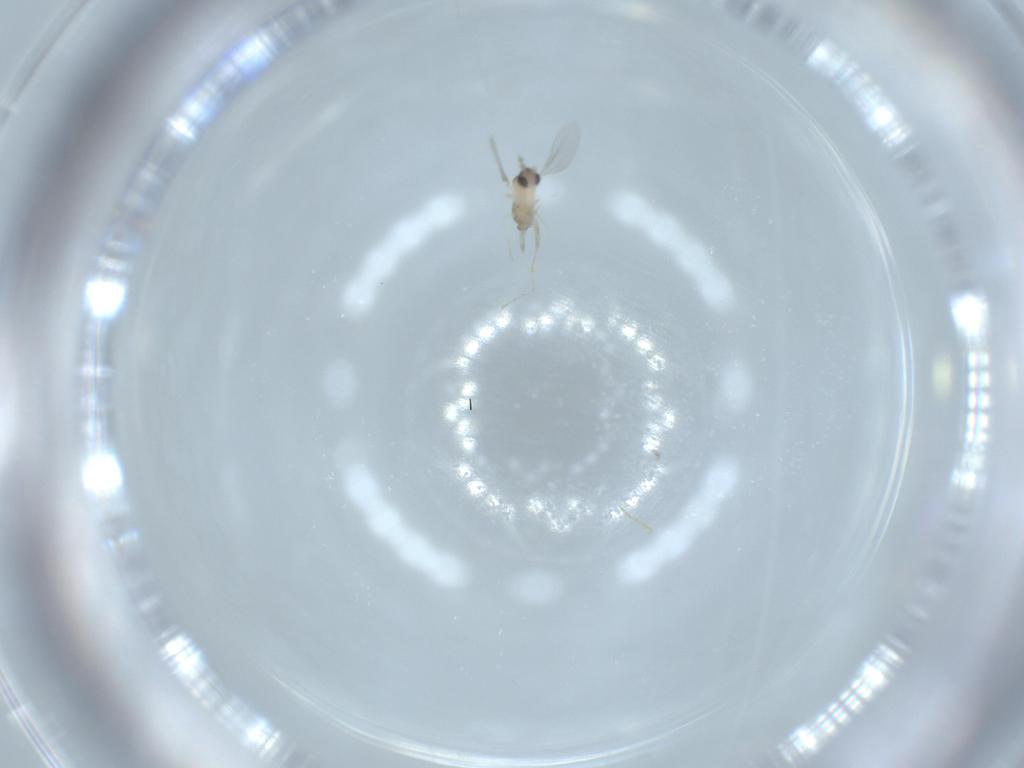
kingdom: Animalia
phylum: Arthropoda
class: Insecta
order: Diptera
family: Cecidomyiidae
